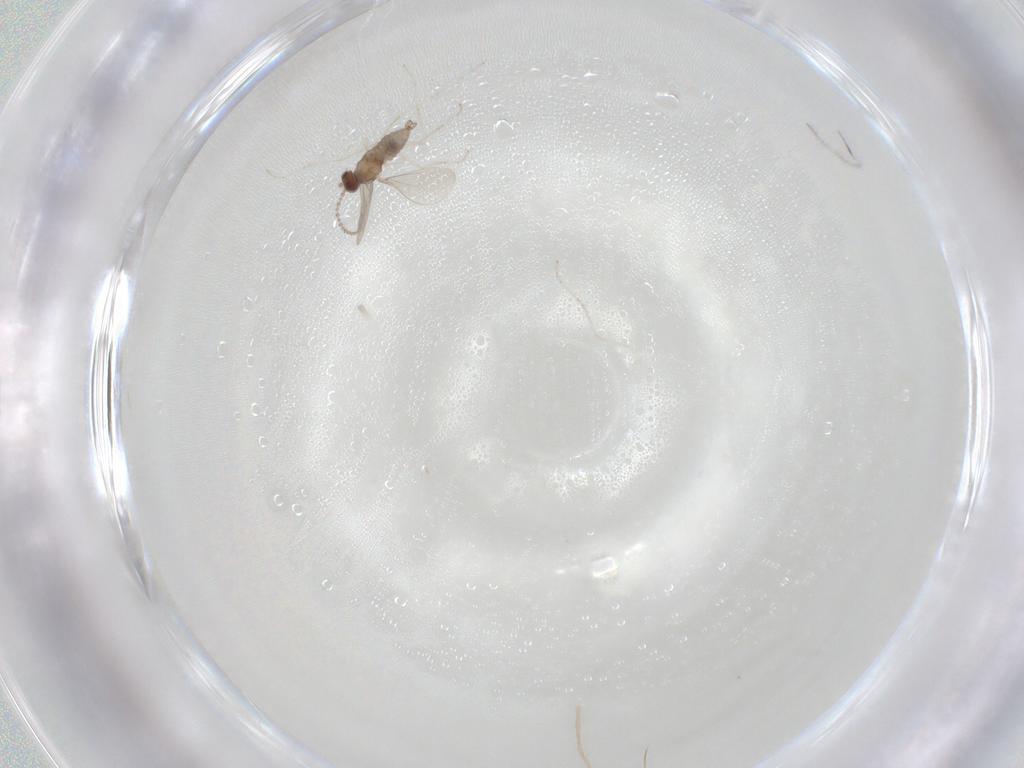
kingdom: Animalia
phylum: Arthropoda
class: Insecta
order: Diptera
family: Cecidomyiidae
